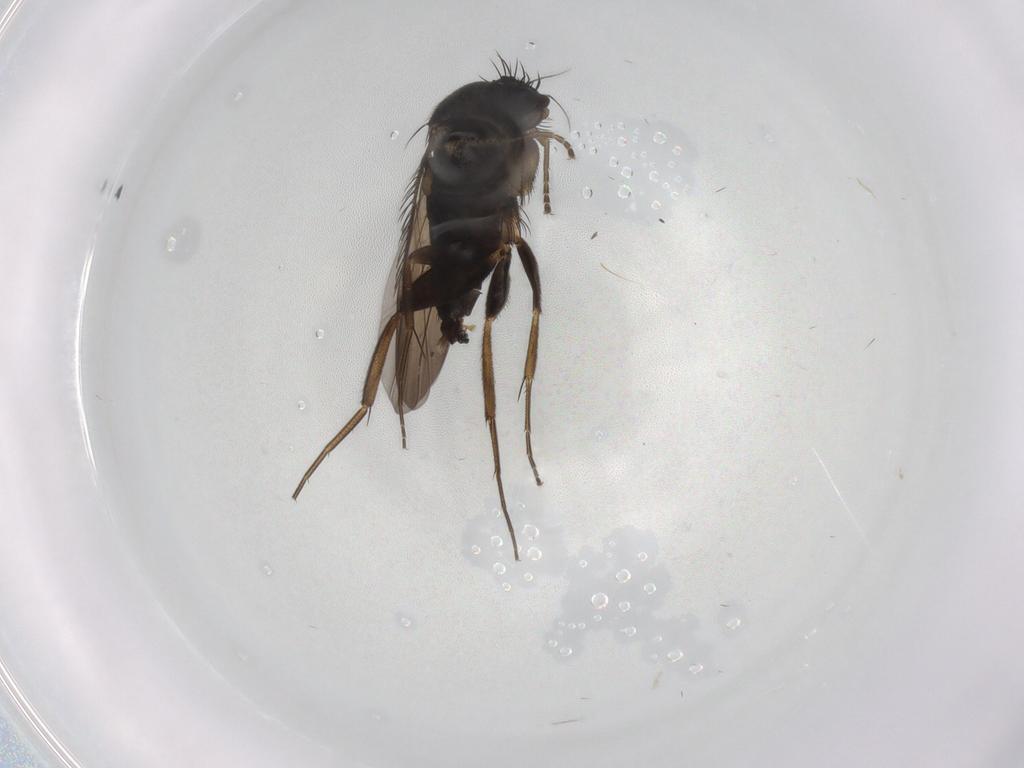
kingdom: Animalia
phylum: Arthropoda
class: Insecta
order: Diptera
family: Phoridae
